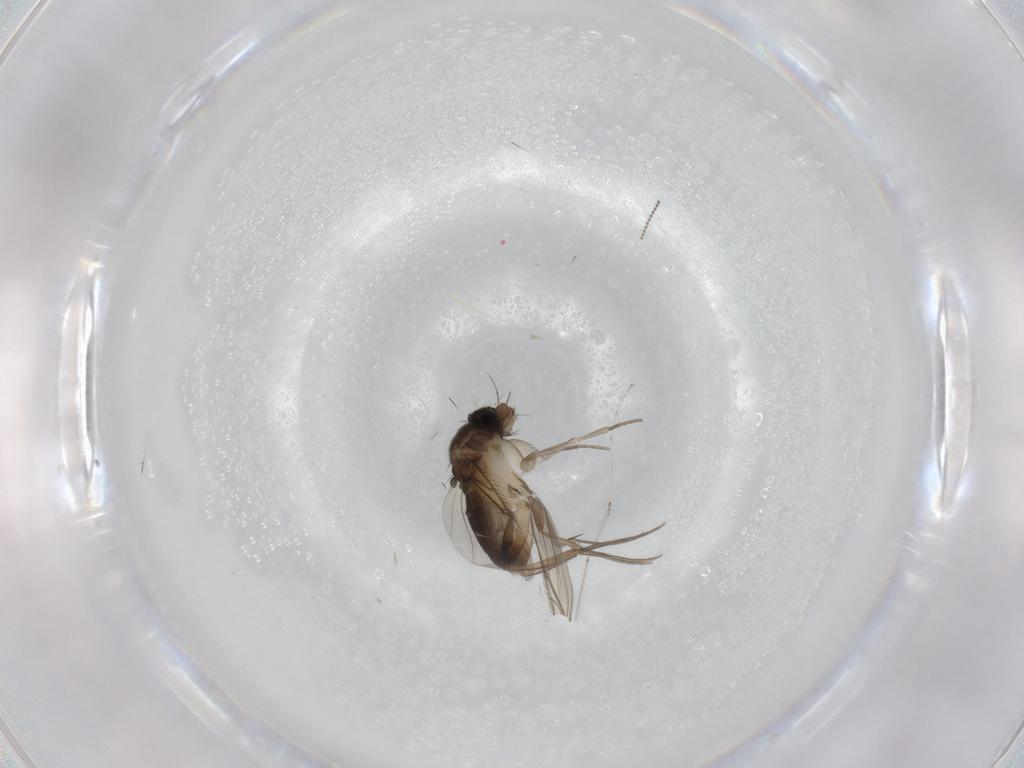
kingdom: Animalia
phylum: Arthropoda
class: Insecta
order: Diptera
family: Phoridae
